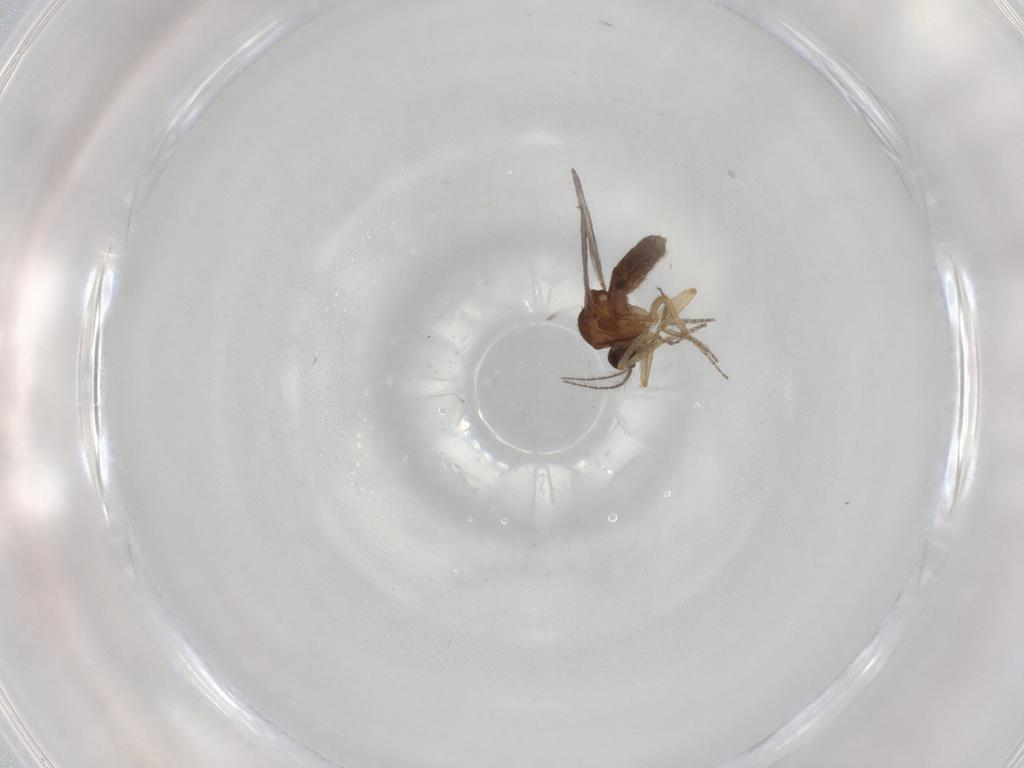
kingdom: Animalia
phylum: Arthropoda
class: Insecta
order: Diptera
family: Ceratopogonidae
